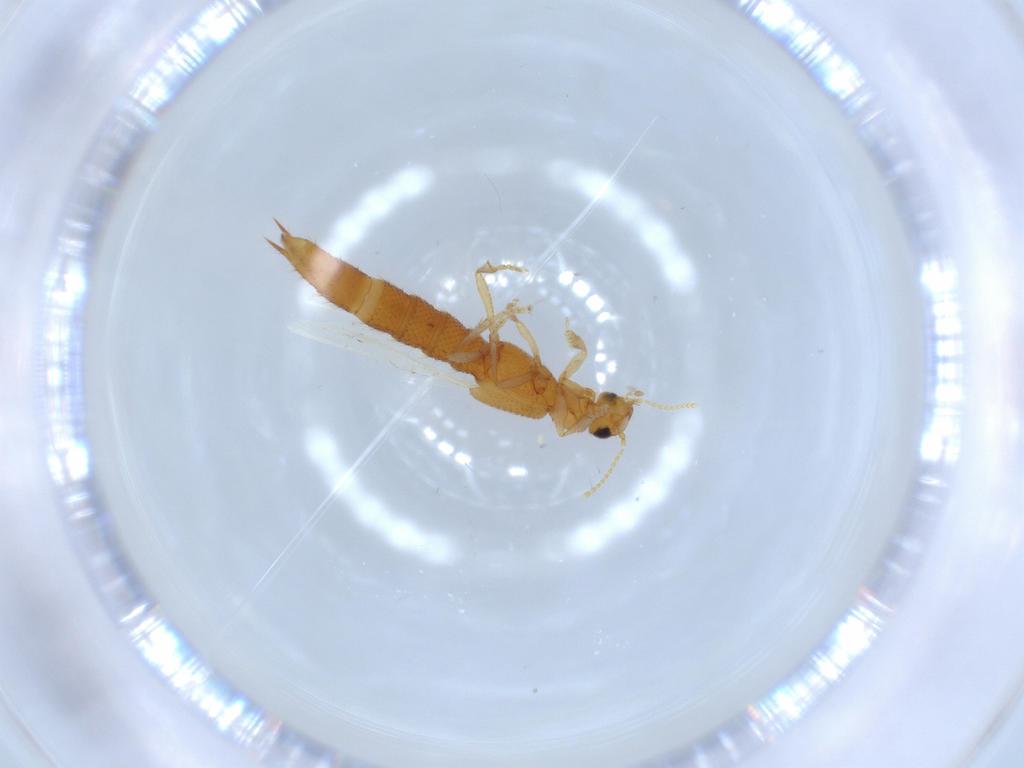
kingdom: Animalia
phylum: Arthropoda
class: Insecta
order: Coleoptera
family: Staphylinidae
